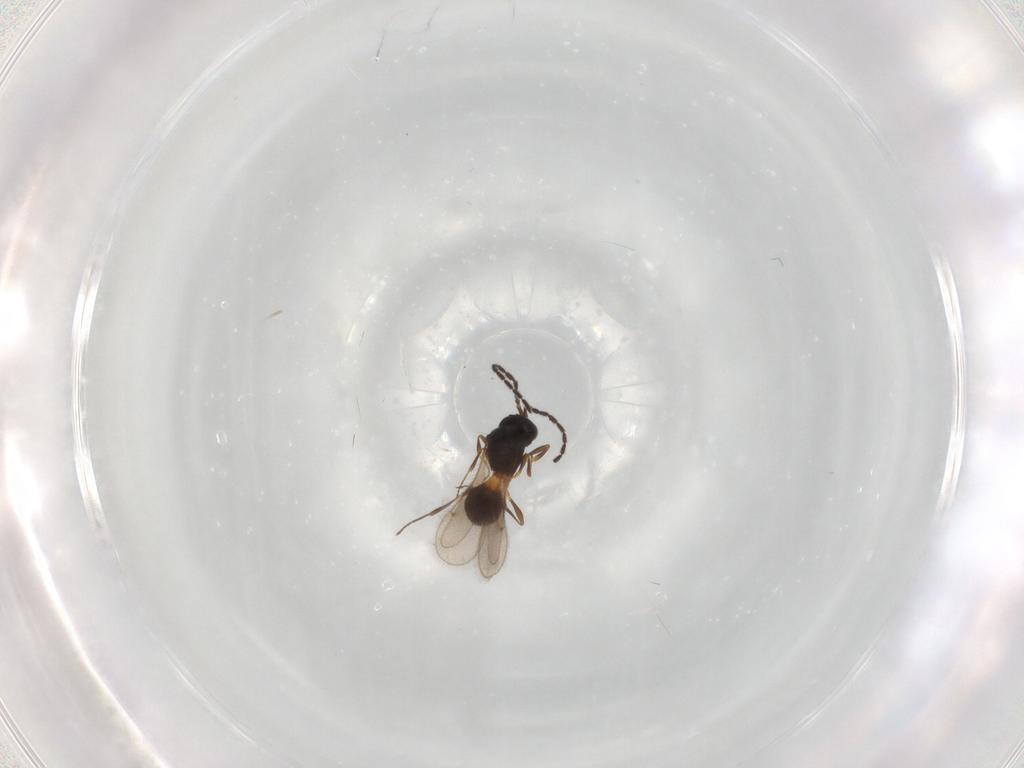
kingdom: Animalia
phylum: Arthropoda
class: Insecta
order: Hymenoptera
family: Scelionidae
